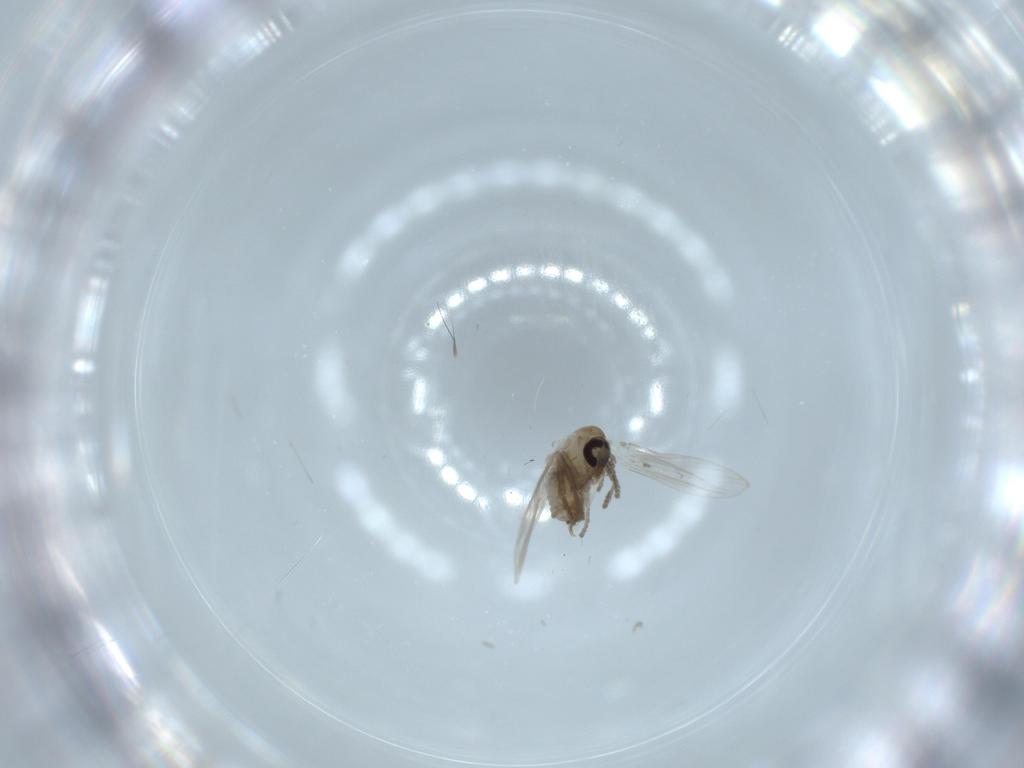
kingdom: Animalia
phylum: Arthropoda
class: Insecta
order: Diptera
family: Psychodidae
